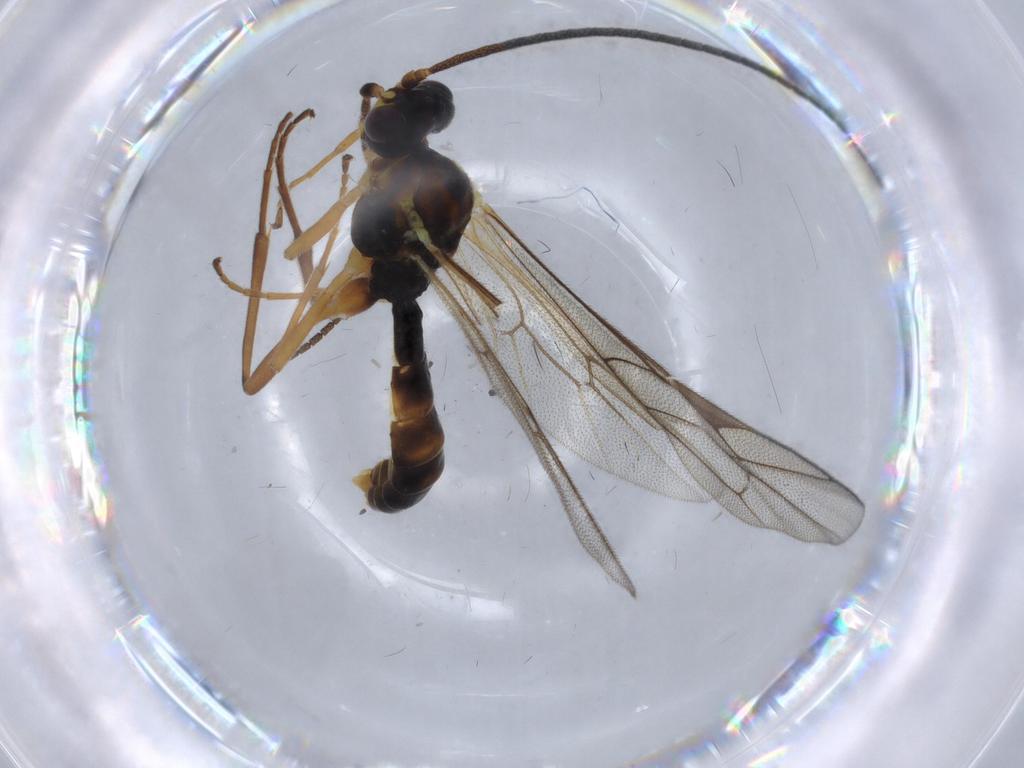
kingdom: Animalia
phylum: Arthropoda
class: Insecta
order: Hymenoptera
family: Ichneumonidae
